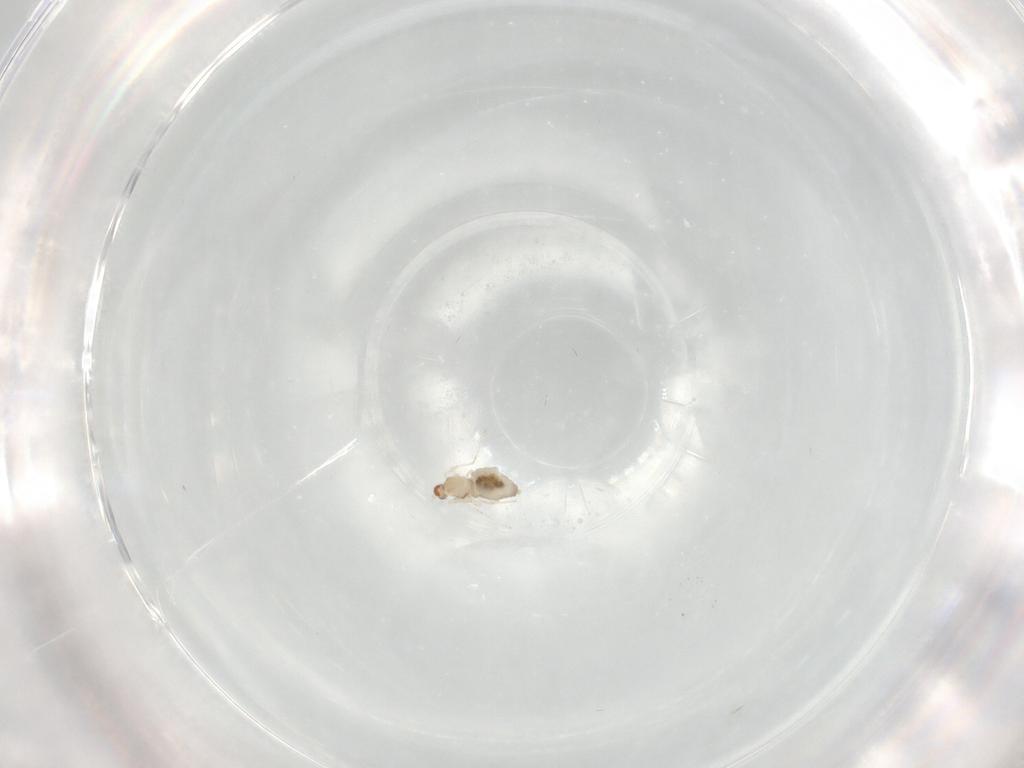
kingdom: Animalia
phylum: Arthropoda
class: Insecta
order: Diptera
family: Cecidomyiidae
